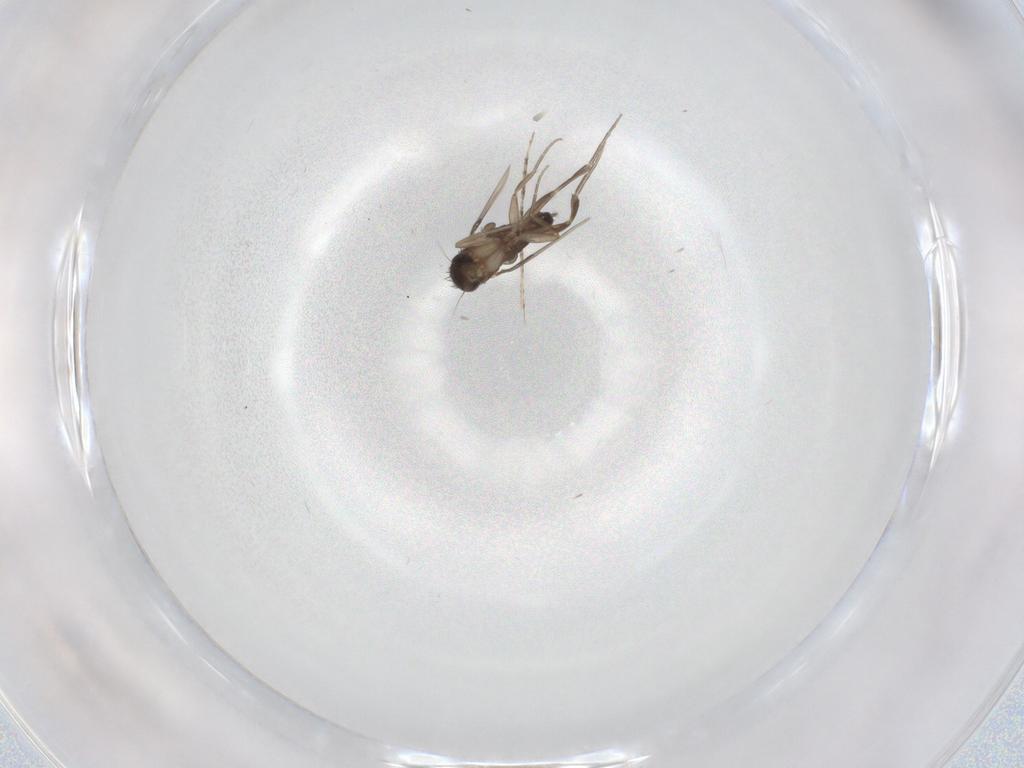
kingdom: Animalia
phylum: Arthropoda
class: Insecta
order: Diptera
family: Phoridae
